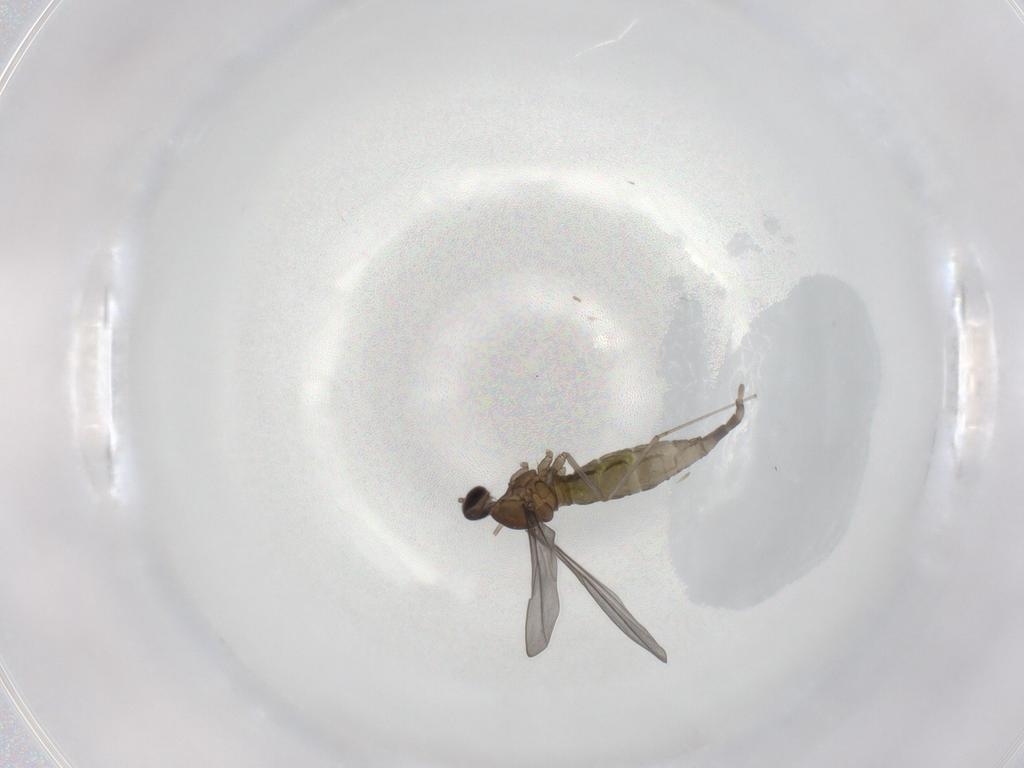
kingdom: Animalia
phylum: Arthropoda
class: Insecta
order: Diptera
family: Cecidomyiidae
